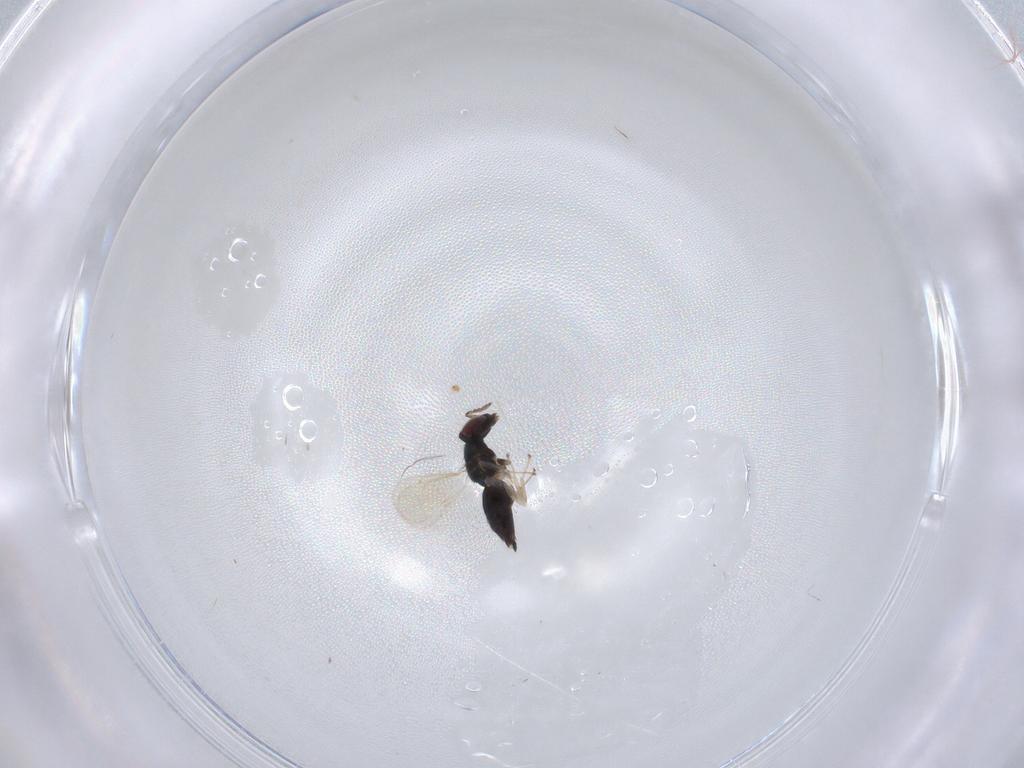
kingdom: Animalia
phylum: Arthropoda
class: Insecta
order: Hymenoptera
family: Eulophidae
